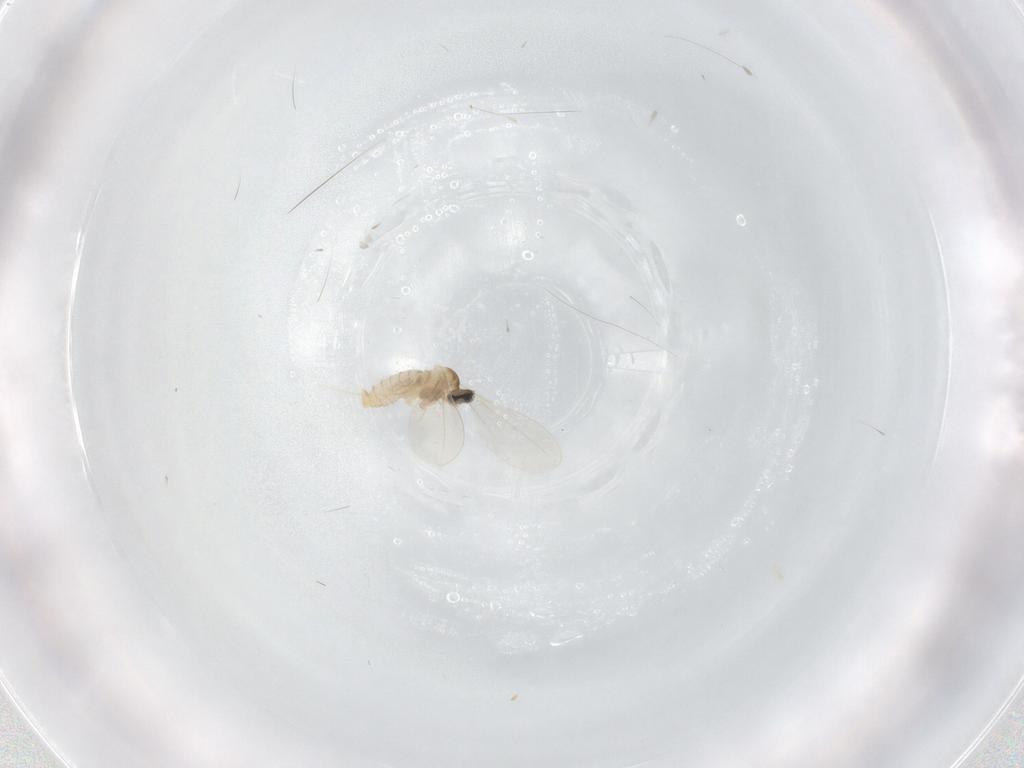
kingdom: Animalia
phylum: Arthropoda
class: Insecta
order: Diptera
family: Cecidomyiidae
